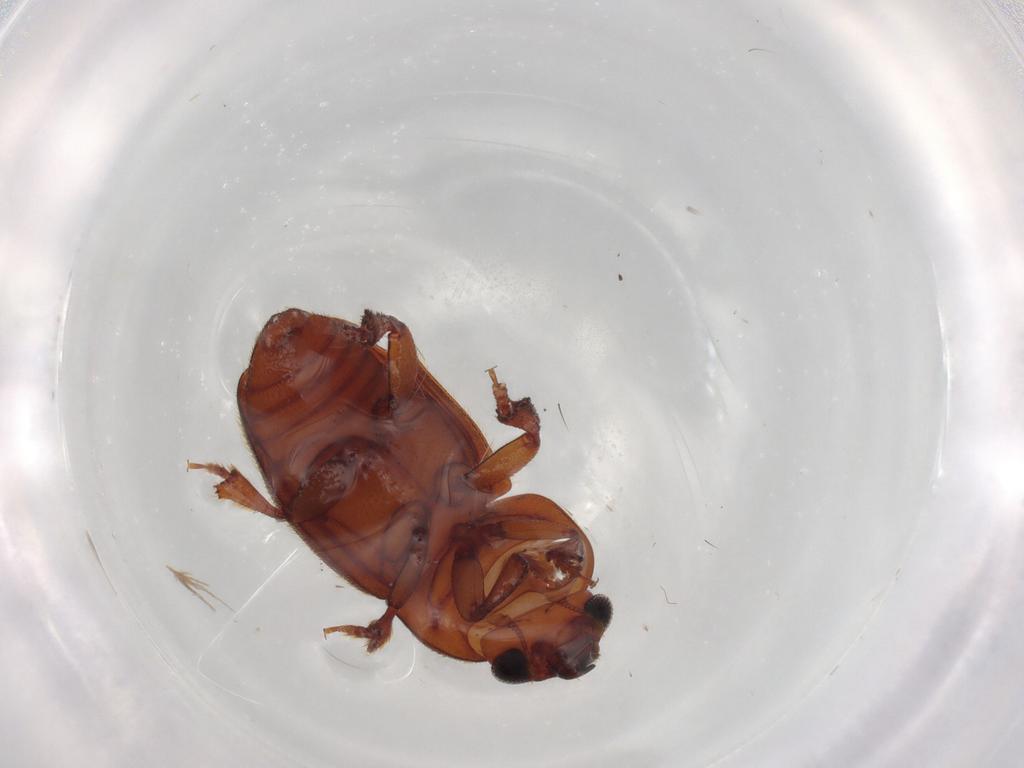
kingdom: Animalia
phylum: Arthropoda
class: Insecta
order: Coleoptera
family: Nitidulidae
